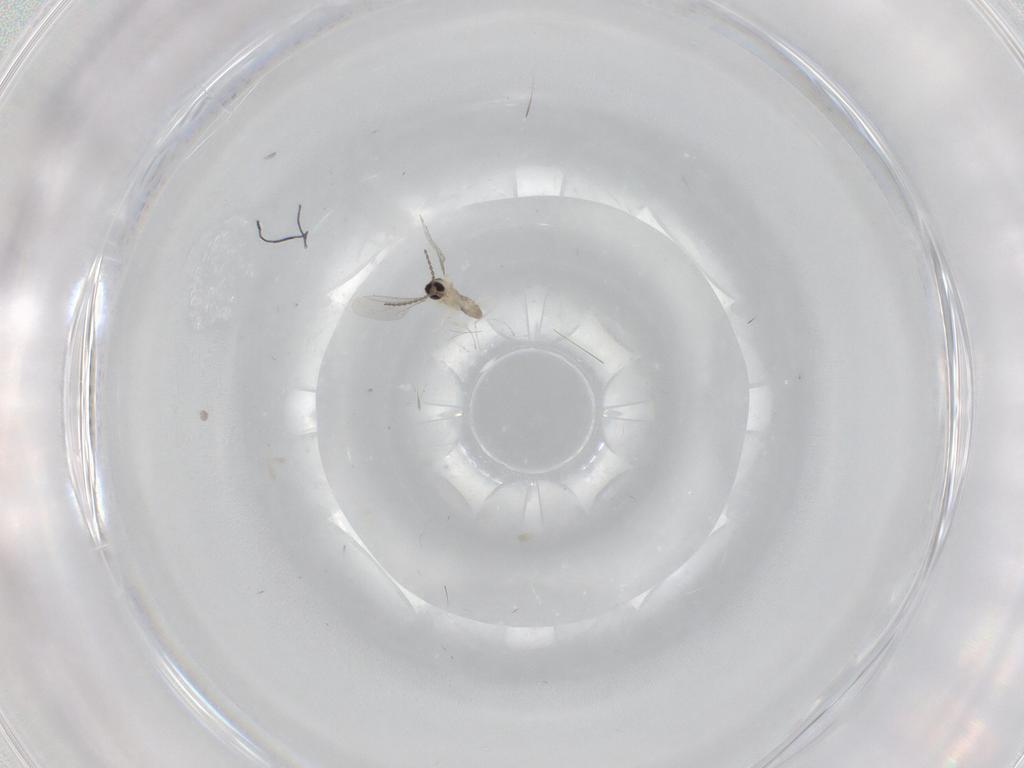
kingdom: Animalia
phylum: Arthropoda
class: Insecta
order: Diptera
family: Cecidomyiidae
